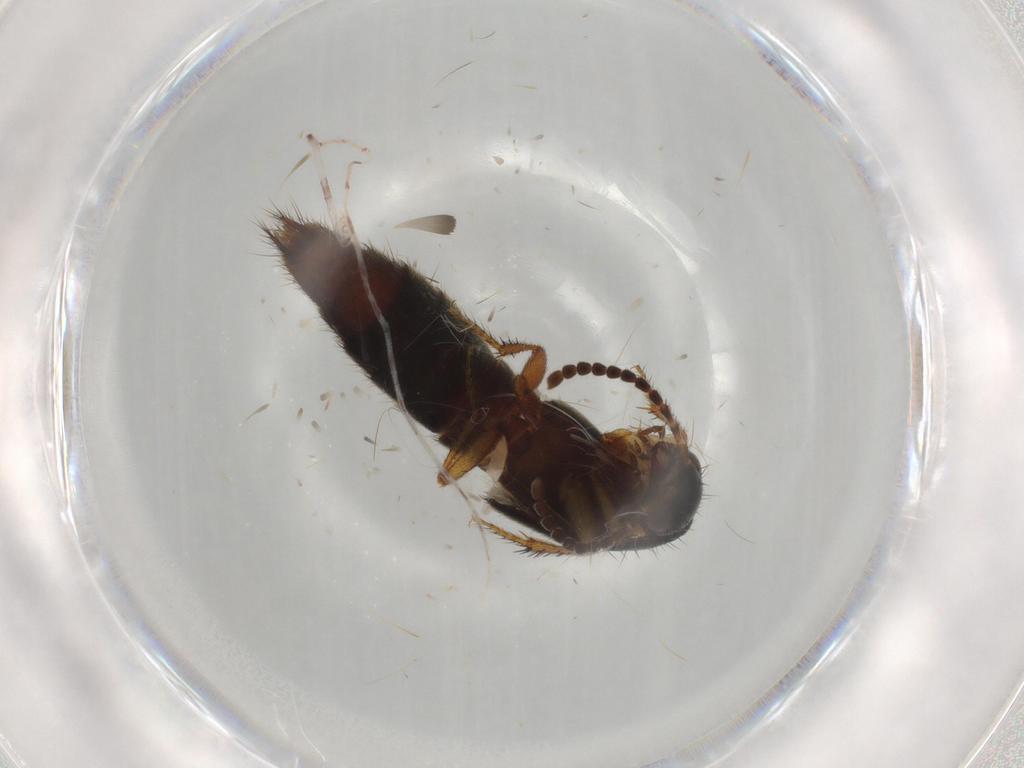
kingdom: Animalia
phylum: Arthropoda
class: Insecta
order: Coleoptera
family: Staphylinidae
